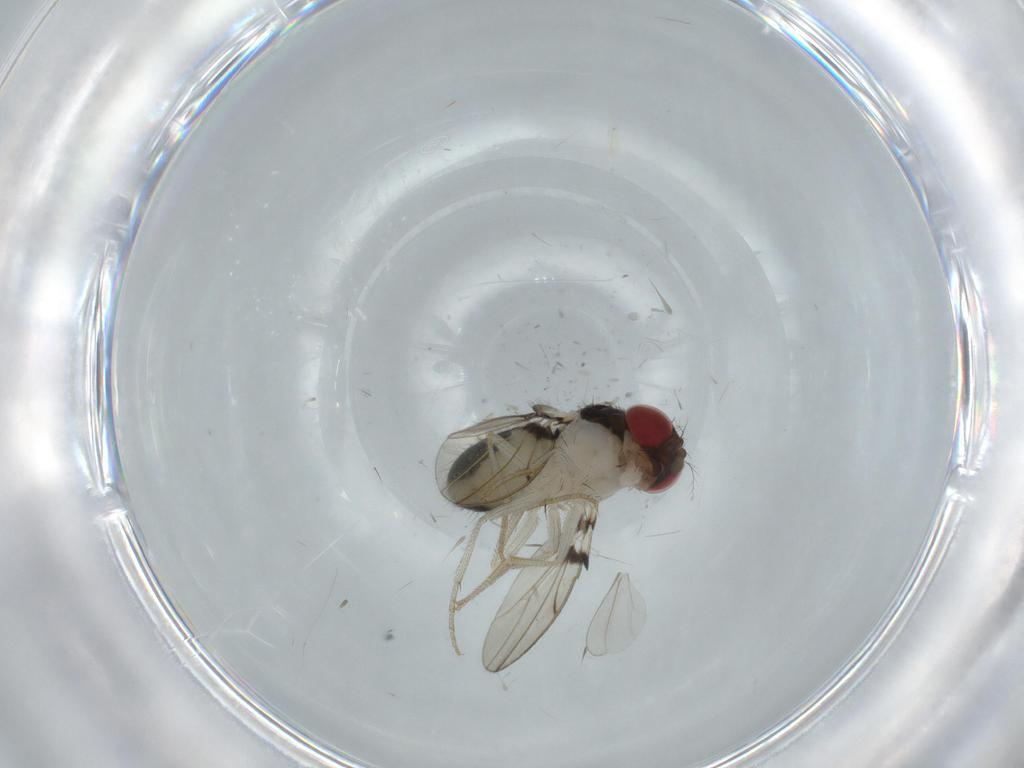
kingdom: Animalia
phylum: Arthropoda
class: Insecta
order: Diptera
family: Drosophilidae
